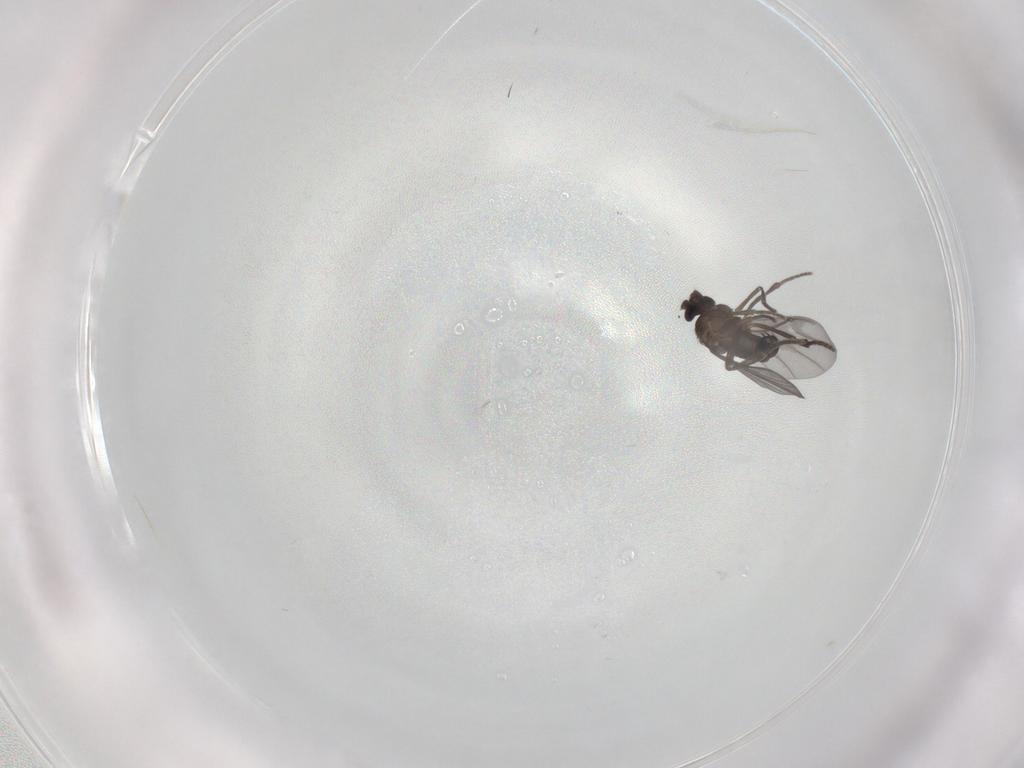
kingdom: Animalia
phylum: Arthropoda
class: Insecta
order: Diptera
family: Phoridae
